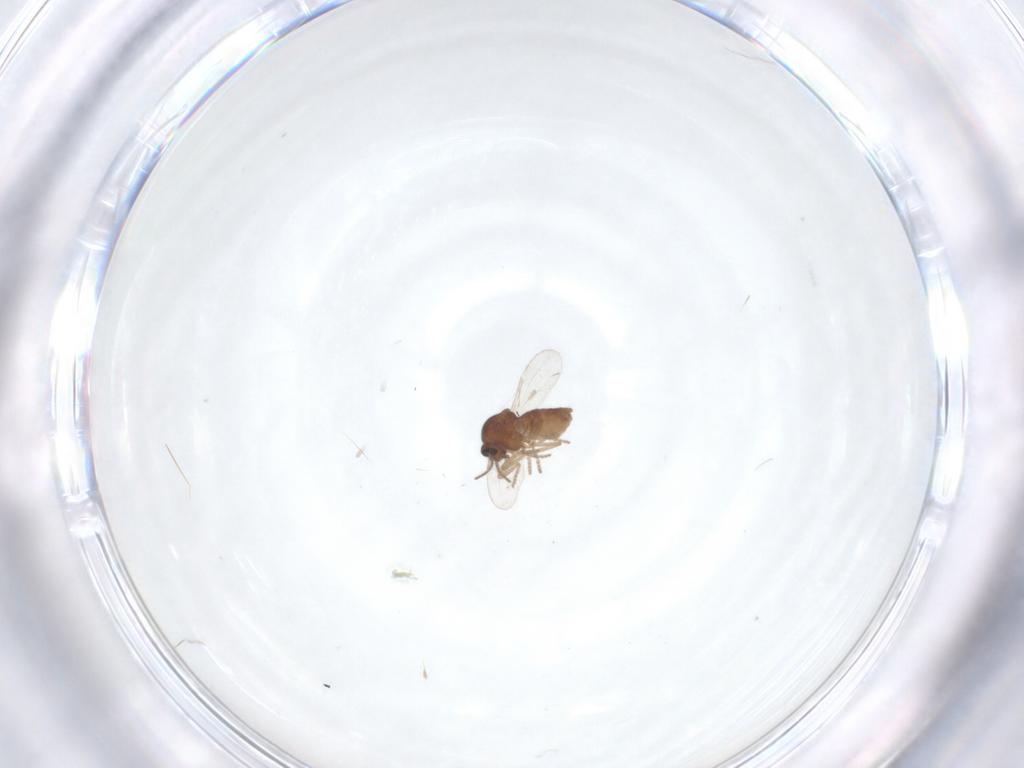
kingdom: Animalia
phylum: Arthropoda
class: Insecta
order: Diptera
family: Ceratopogonidae
